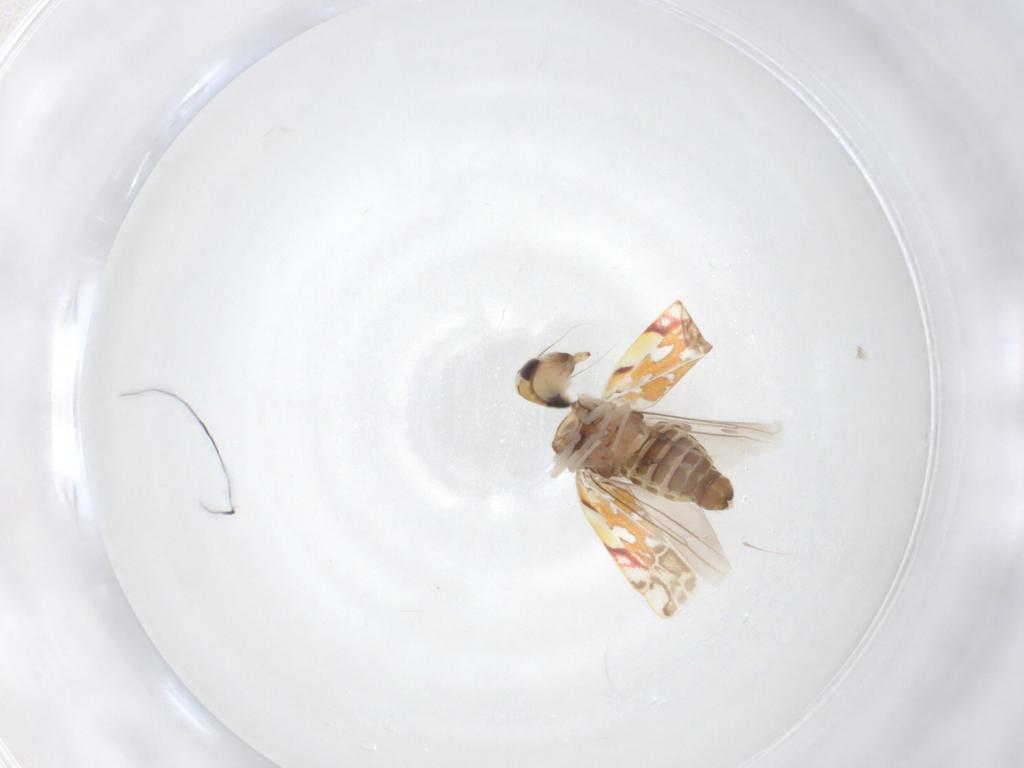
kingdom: Animalia
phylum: Arthropoda
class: Insecta
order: Hemiptera
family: Cicadellidae
